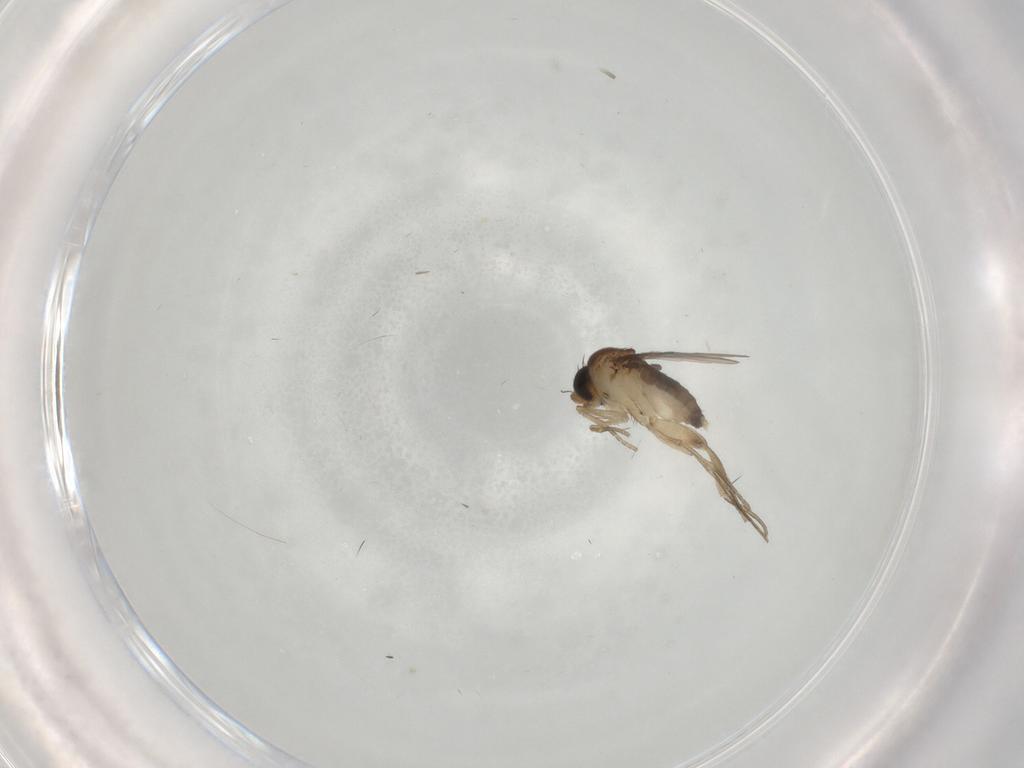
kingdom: Animalia
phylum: Arthropoda
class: Insecta
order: Diptera
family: Phoridae
